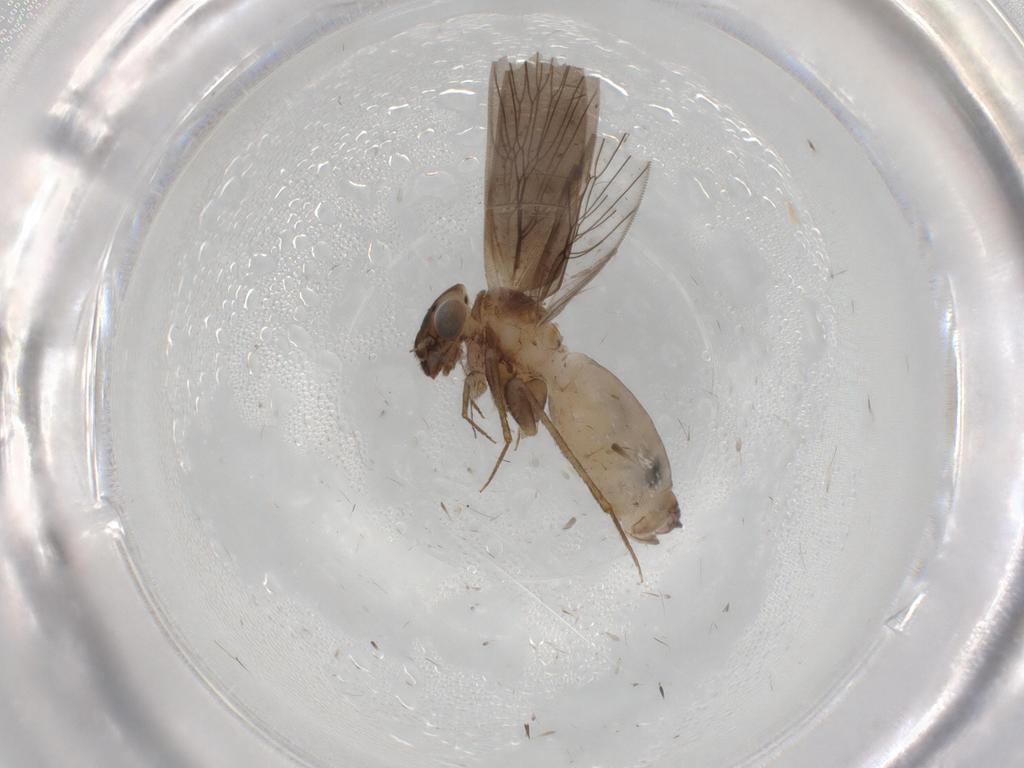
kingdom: Animalia
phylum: Arthropoda
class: Insecta
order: Psocodea
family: Lepidopsocidae
